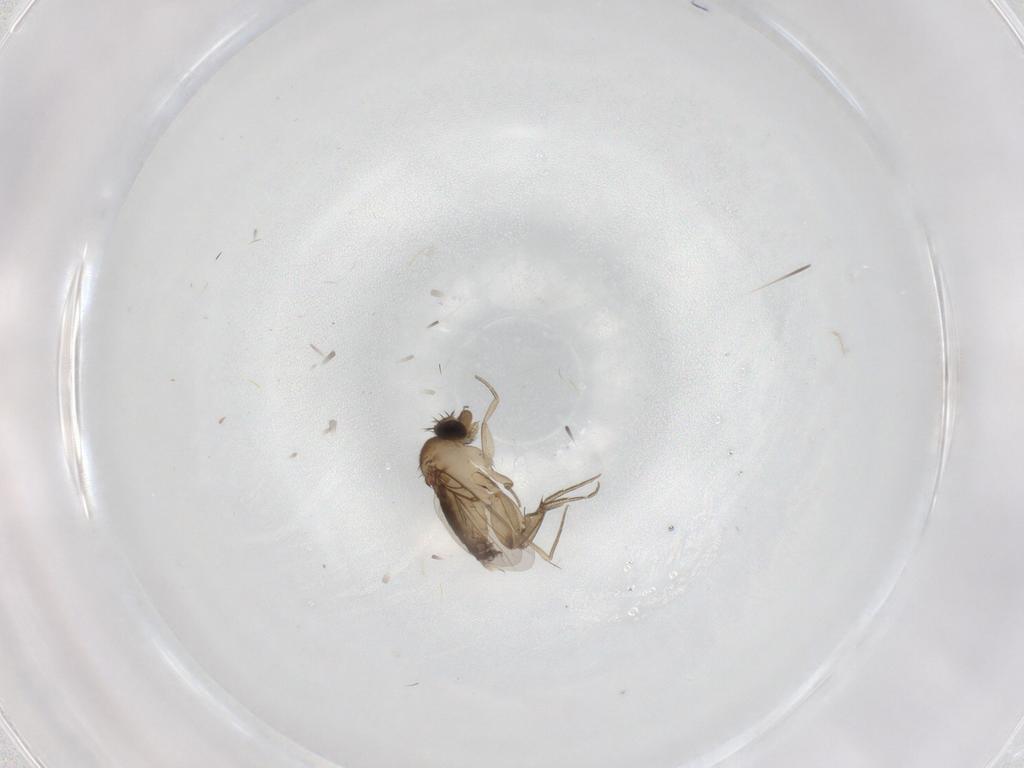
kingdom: Animalia
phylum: Arthropoda
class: Insecta
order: Diptera
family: Phoridae
